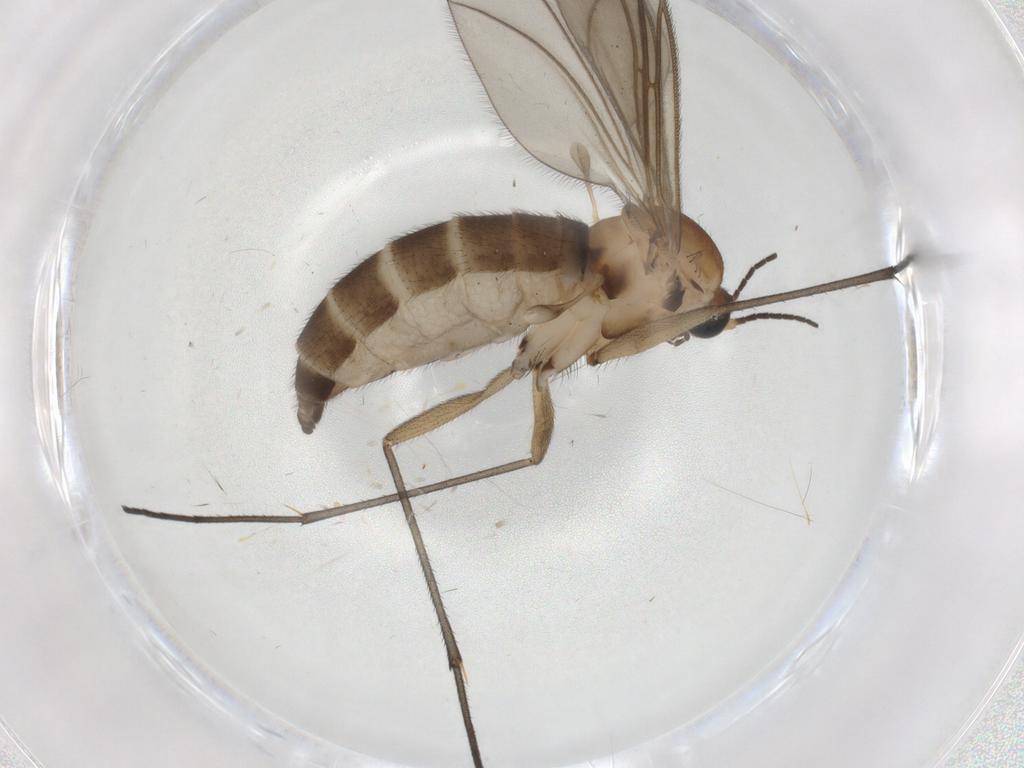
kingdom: Animalia
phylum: Arthropoda
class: Insecta
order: Diptera
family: Sciaridae
